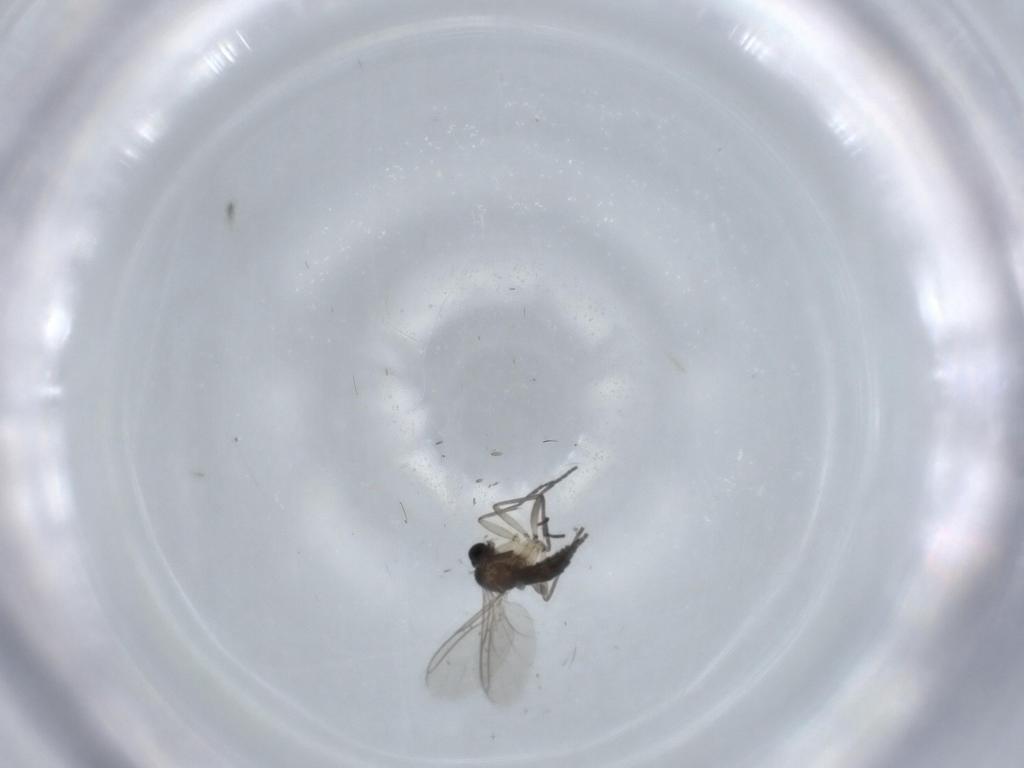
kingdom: Animalia
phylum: Arthropoda
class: Insecta
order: Diptera
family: Sciaridae
